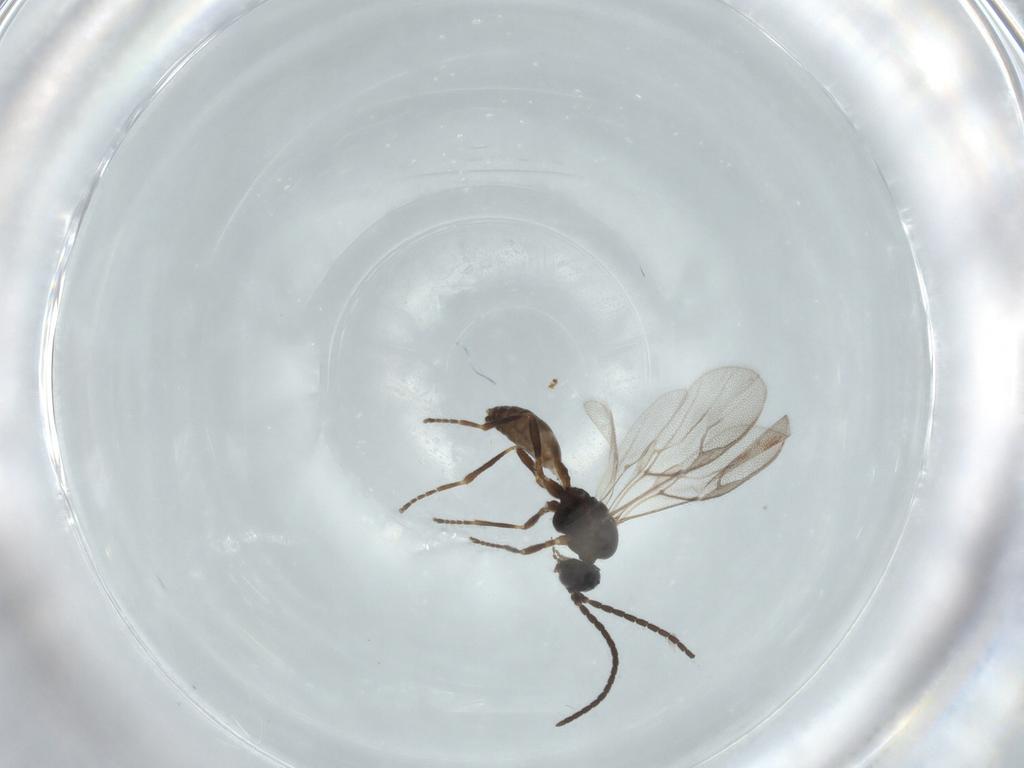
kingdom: Animalia
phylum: Arthropoda
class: Insecta
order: Hymenoptera
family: Braconidae
